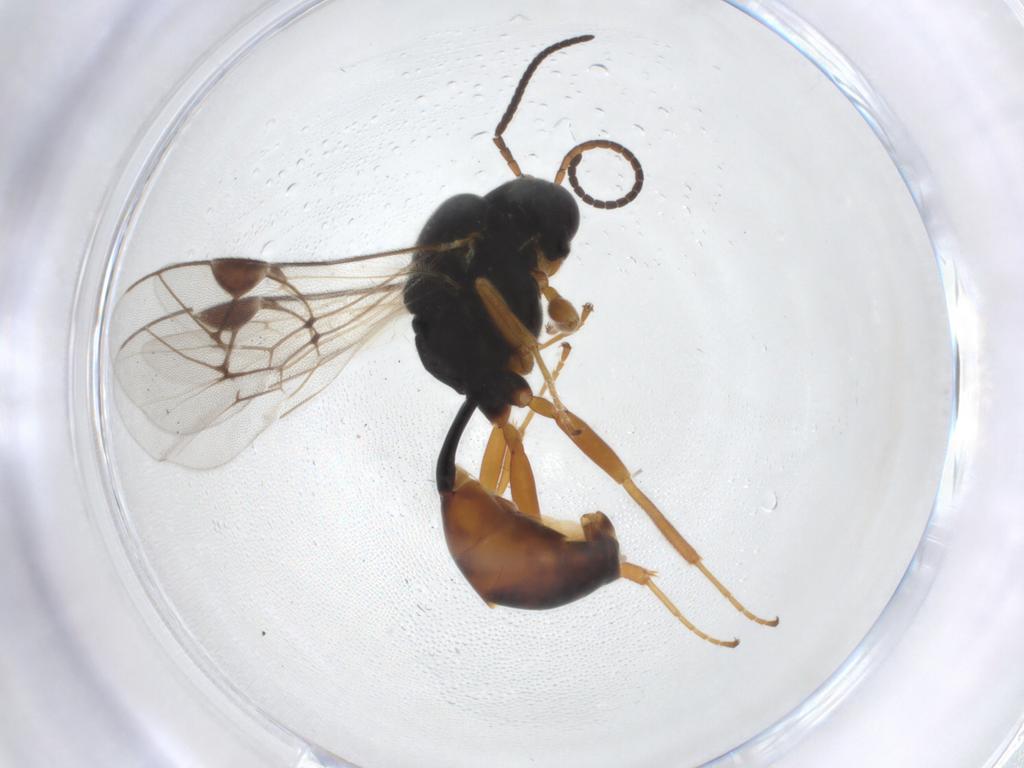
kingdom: Animalia
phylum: Arthropoda
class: Insecta
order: Hymenoptera
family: Ichneumonidae
